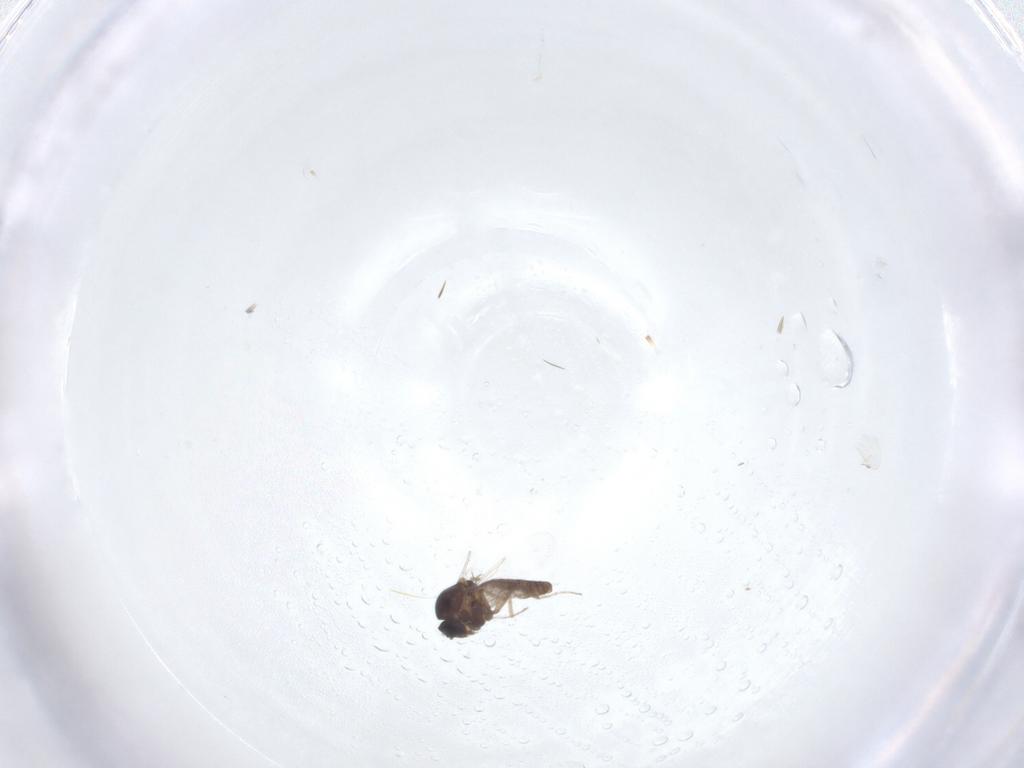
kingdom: Animalia
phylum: Arthropoda
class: Insecta
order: Diptera
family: Ceratopogonidae
